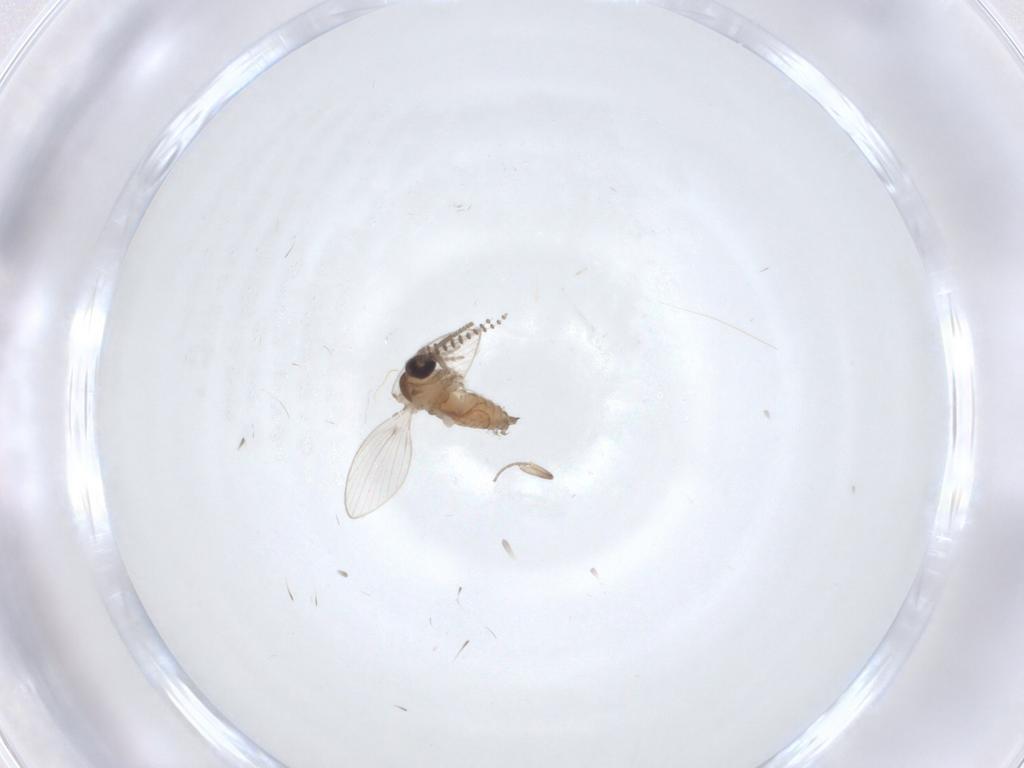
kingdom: Animalia
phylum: Arthropoda
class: Insecta
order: Diptera
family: Psychodidae
